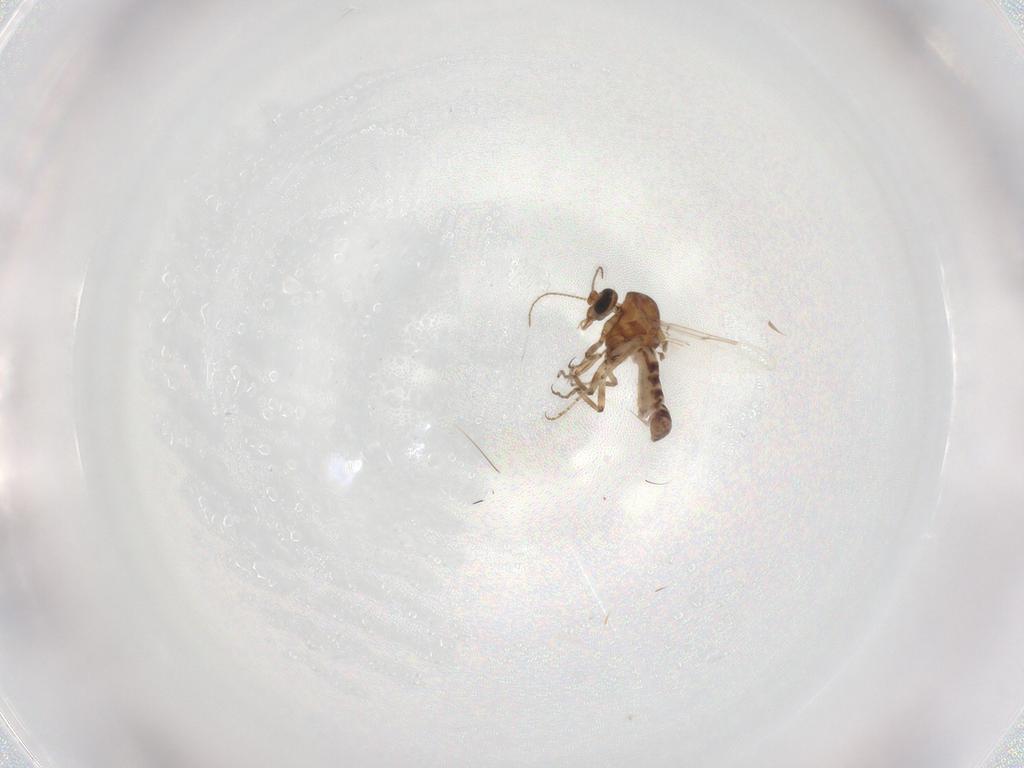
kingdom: Animalia
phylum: Arthropoda
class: Insecta
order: Diptera
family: Ceratopogonidae
